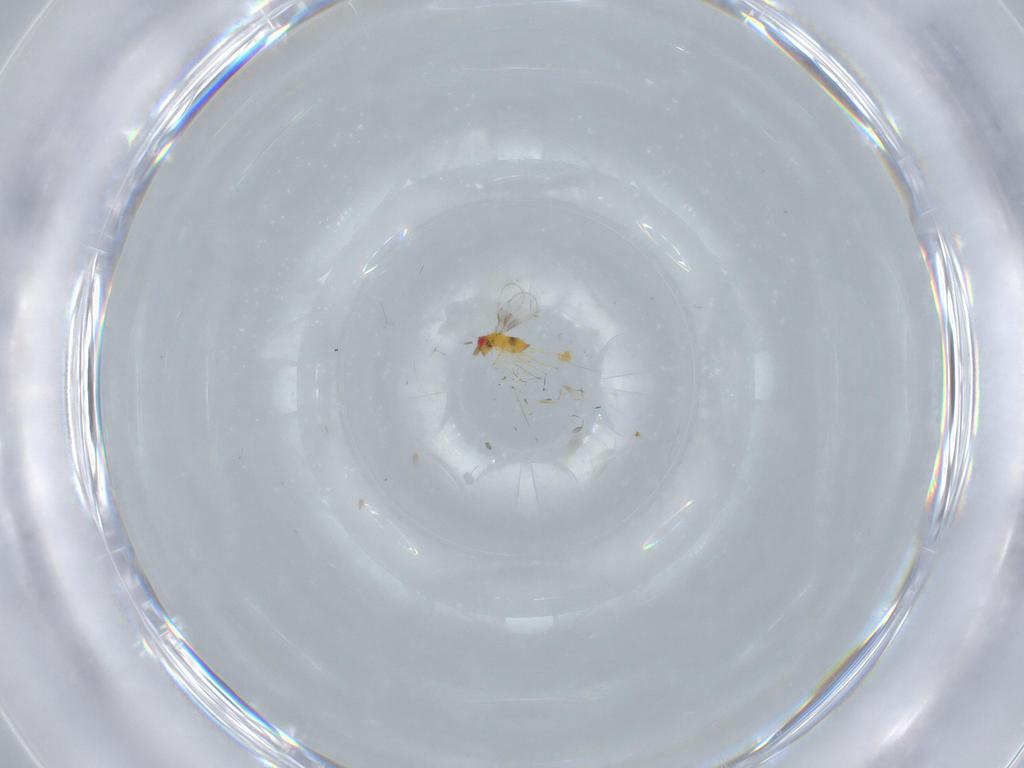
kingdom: Animalia
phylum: Arthropoda
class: Insecta
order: Hymenoptera
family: Trichogrammatidae
